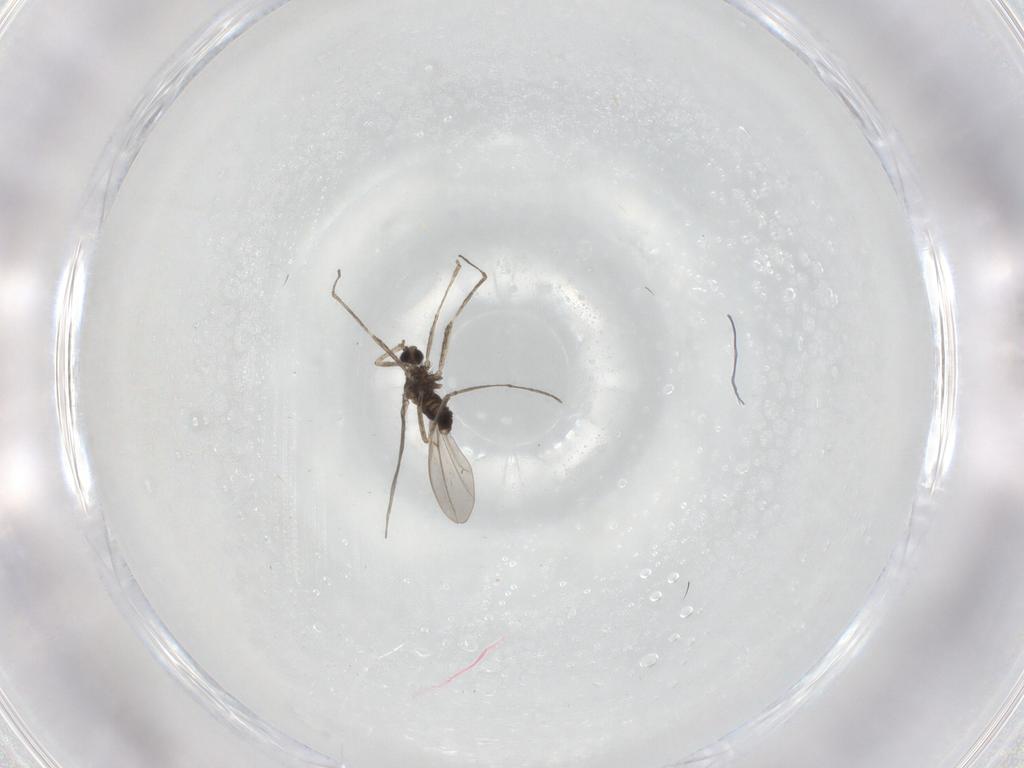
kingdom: Animalia
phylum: Arthropoda
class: Insecta
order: Diptera
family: Cecidomyiidae
